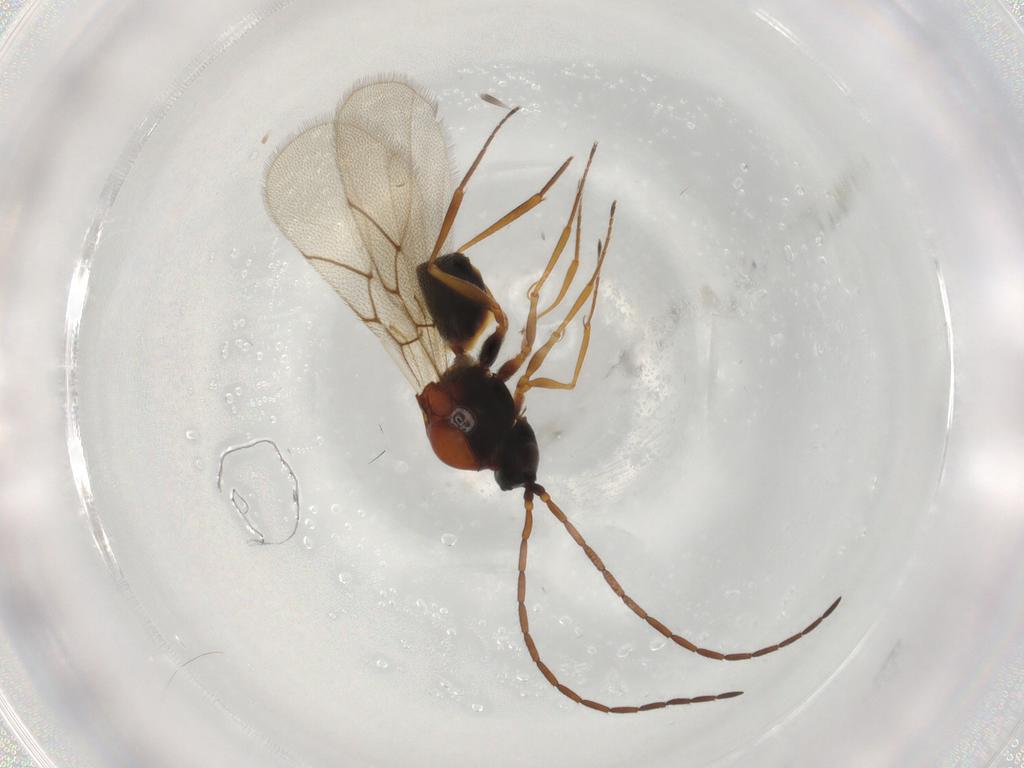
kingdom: Animalia
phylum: Arthropoda
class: Insecta
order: Hymenoptera
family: Figitidae
